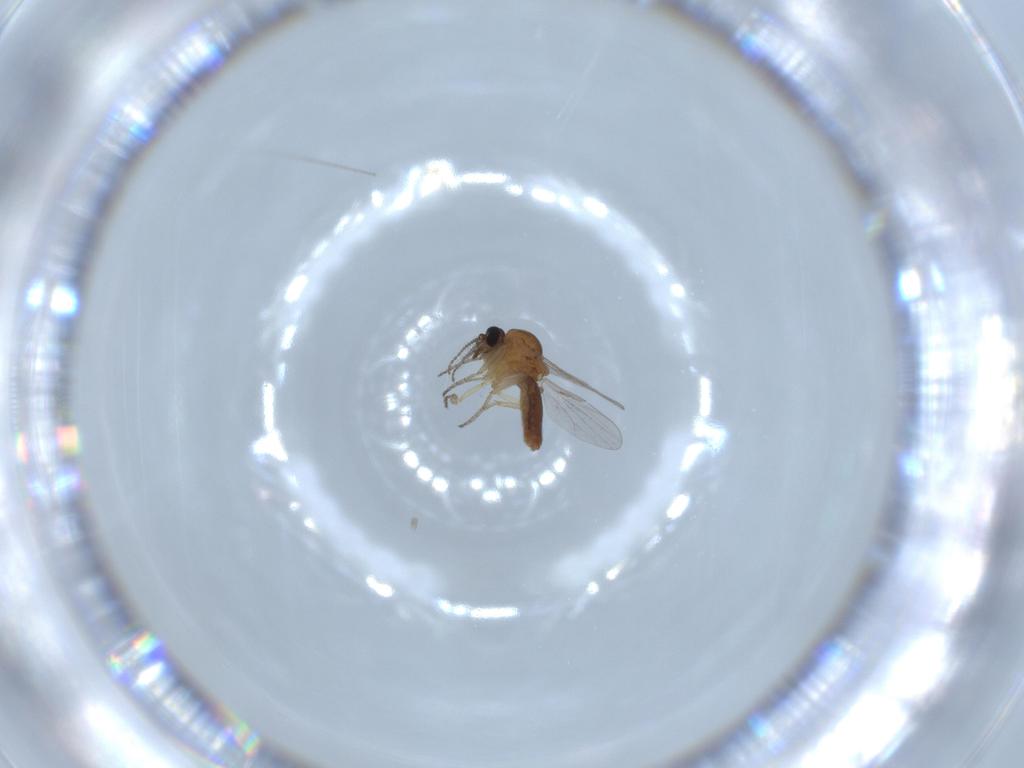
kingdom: Animalia
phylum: Arthropoda
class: Insecta
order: Diptera
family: Ceratopogonidae
